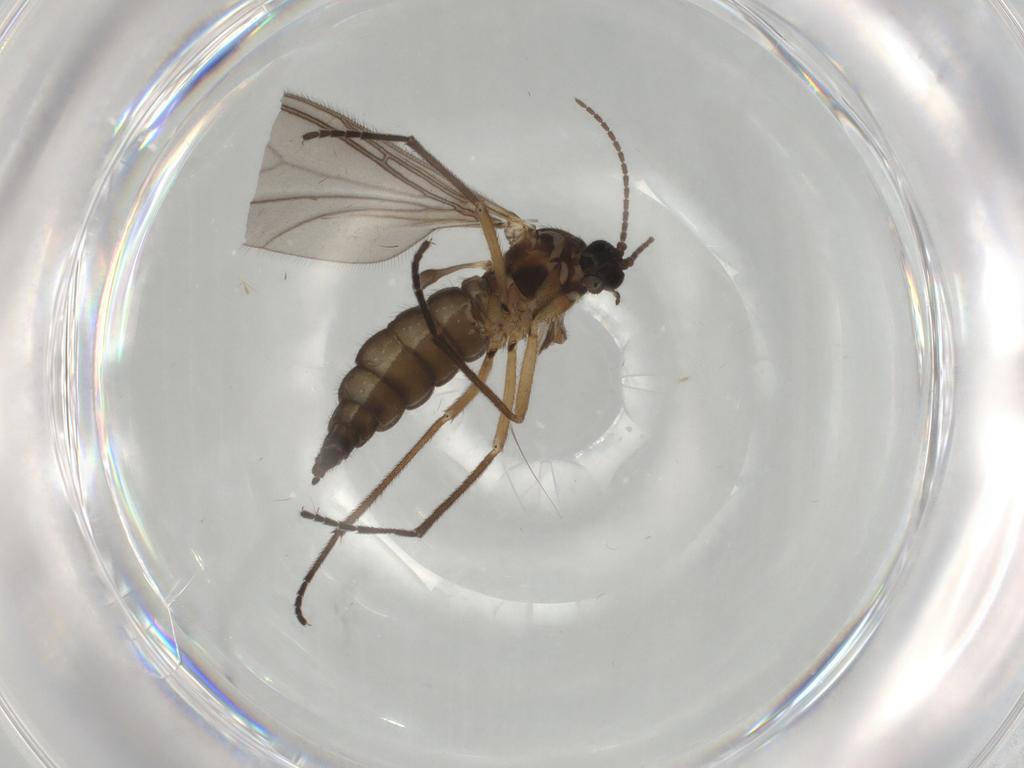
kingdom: Animalia
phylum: Arthropoda
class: Insecta
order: Diptera
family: Sciaridae
